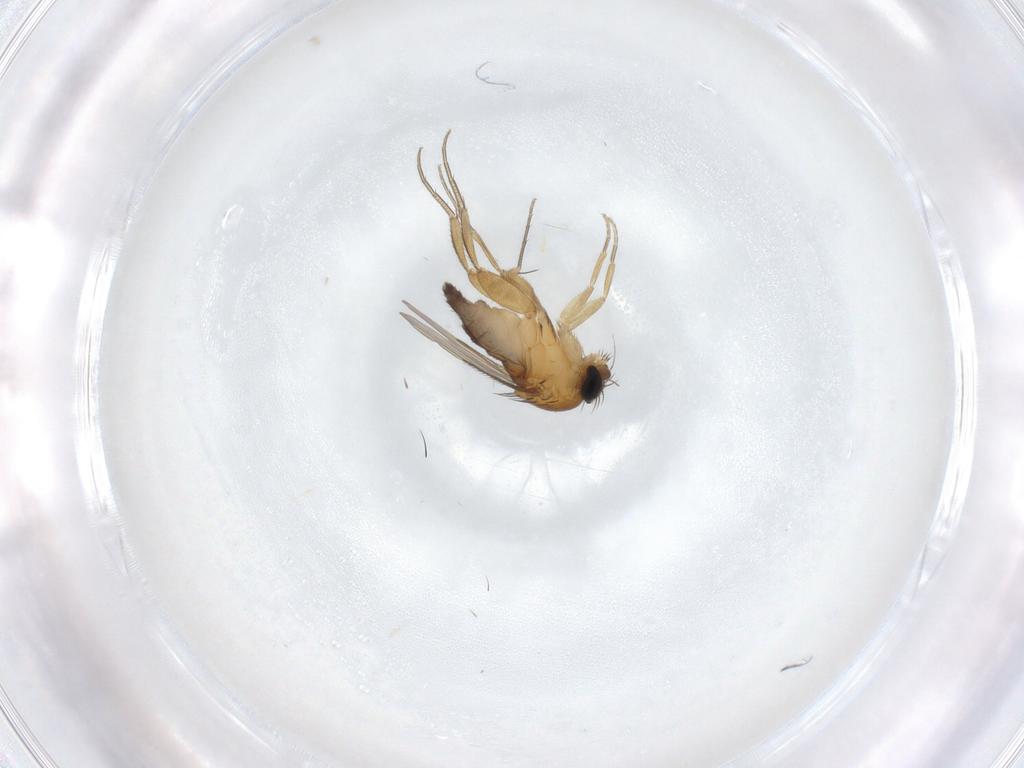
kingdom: Animalia
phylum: Arthropoda
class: Insecta
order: Diptera
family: Phoridae
